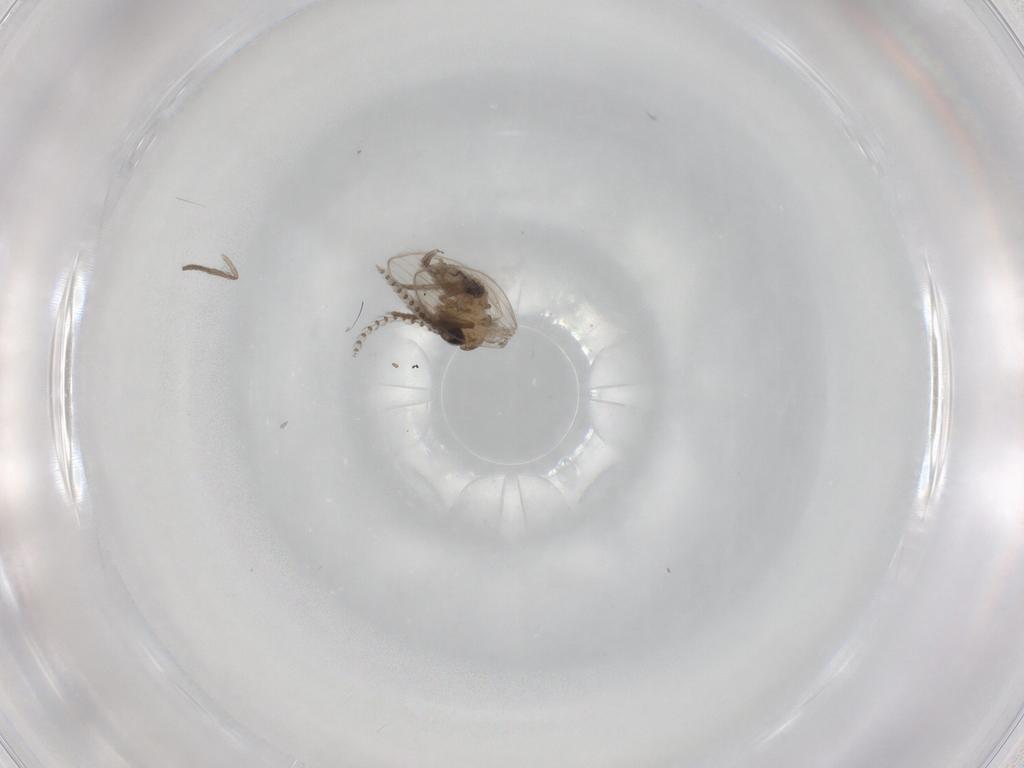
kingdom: Animalia
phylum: Arthropoda
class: Insecta
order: Diptera
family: Psychodidae
